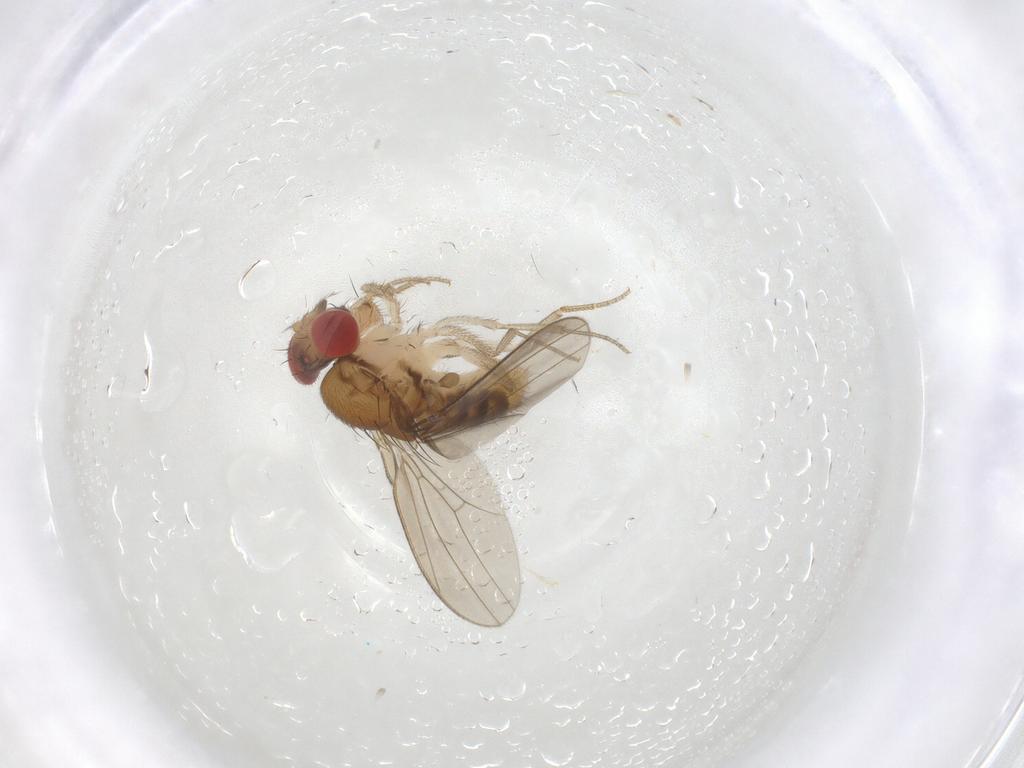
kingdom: Animalia
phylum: Arthropoda
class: Insecta
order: Diptera
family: Drosophilidae
